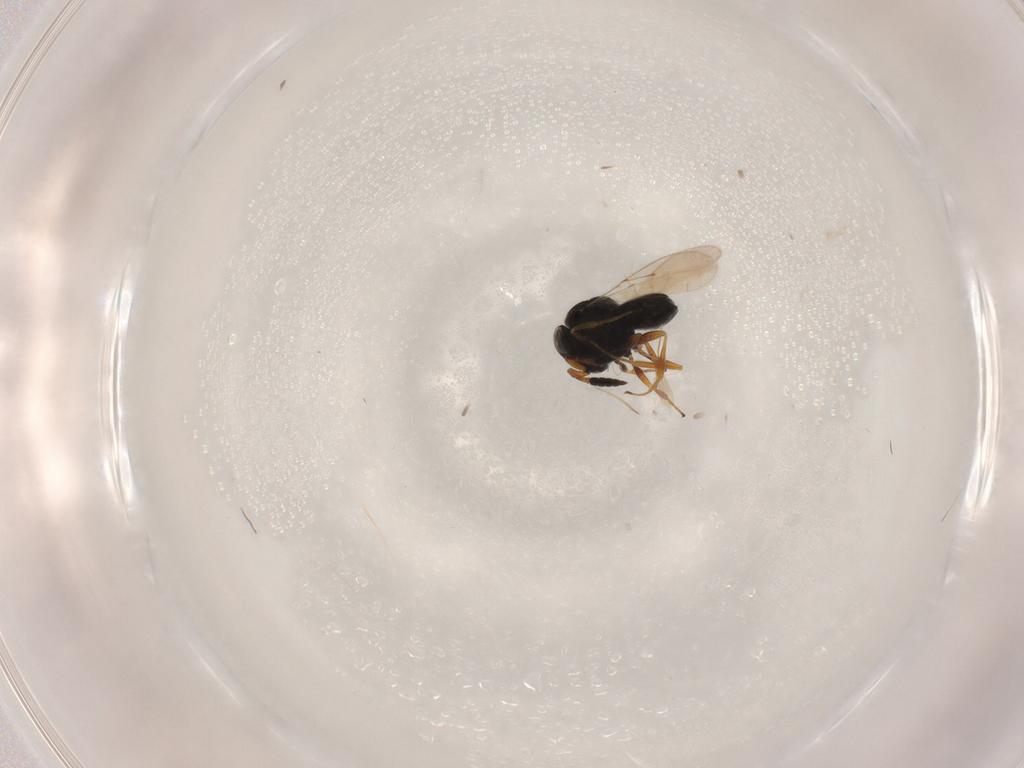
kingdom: Animalia
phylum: Arthropoda
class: Insecta
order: Hymenoptera
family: Scelionidae
